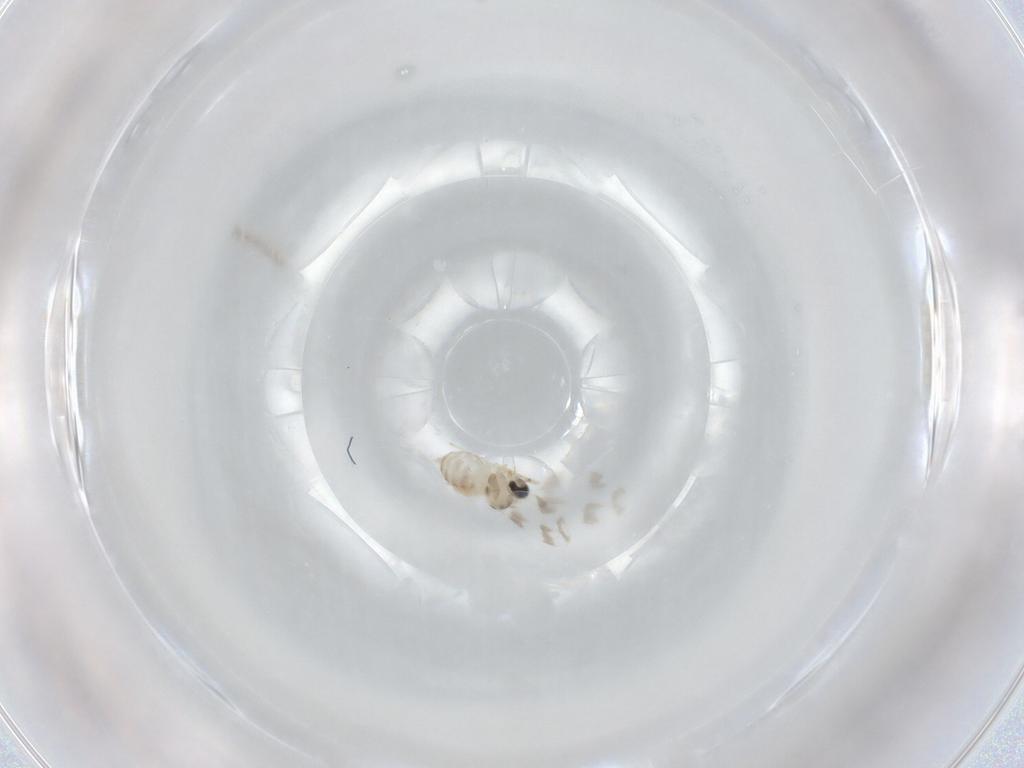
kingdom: Animalia
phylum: Arthropoda
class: Insecta
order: Diptera
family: Cecidomyiidae
